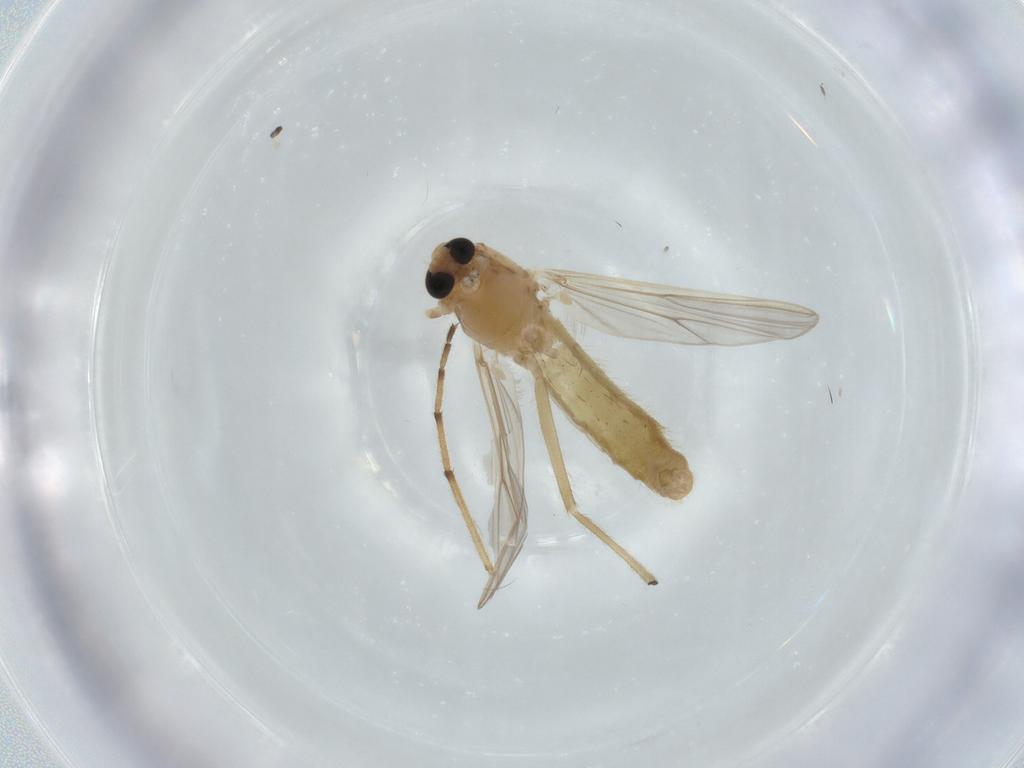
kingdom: Animalia
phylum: Arthropoda
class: Insecta
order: Diptera
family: Chironomidae
